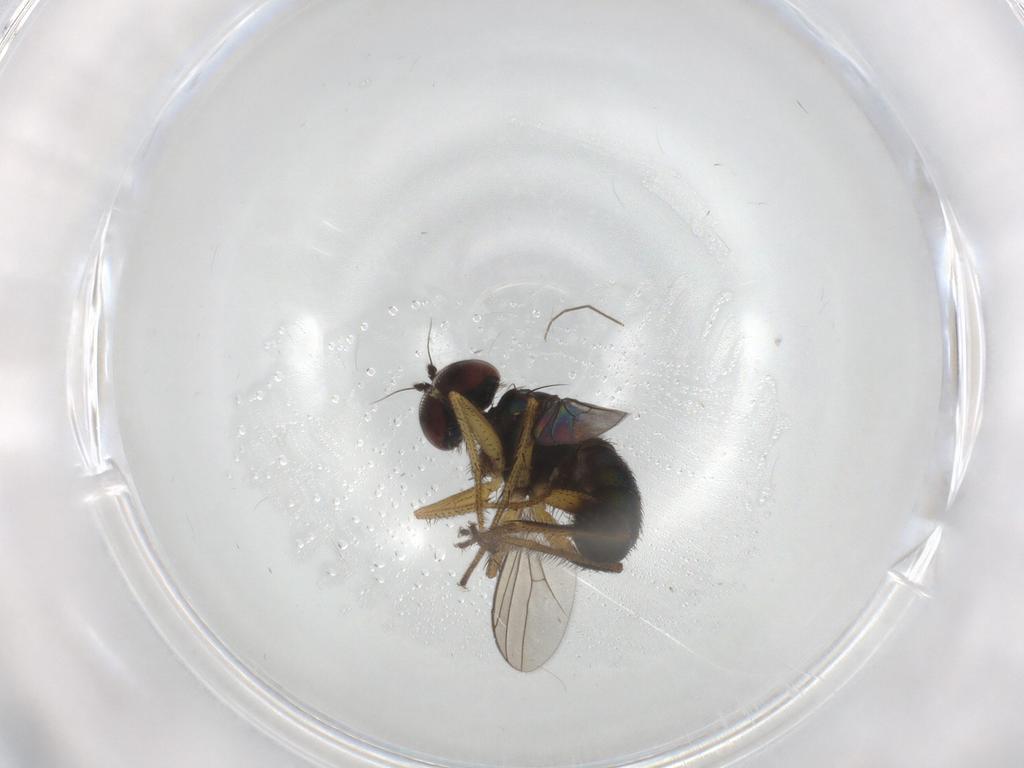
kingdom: Animalia
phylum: Arthropoda
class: Insecta
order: Diptera
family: Dolichopodidae
